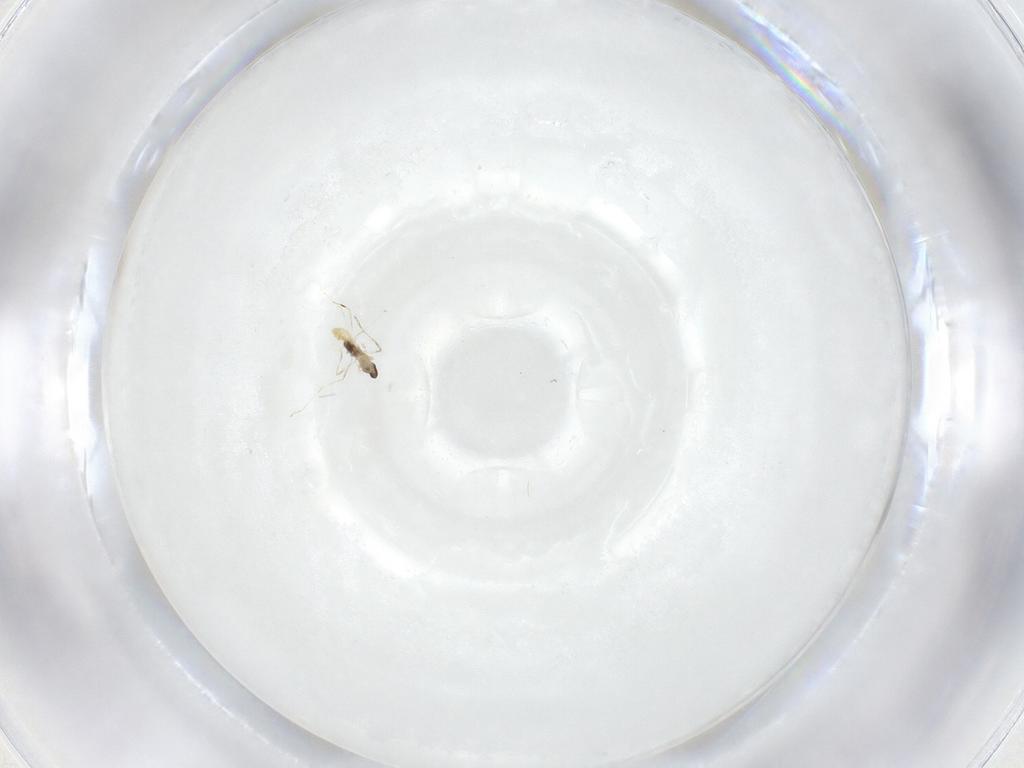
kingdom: Animalia
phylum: Arthropoda
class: Insecta
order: Diptera
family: Cecidomyiidae
